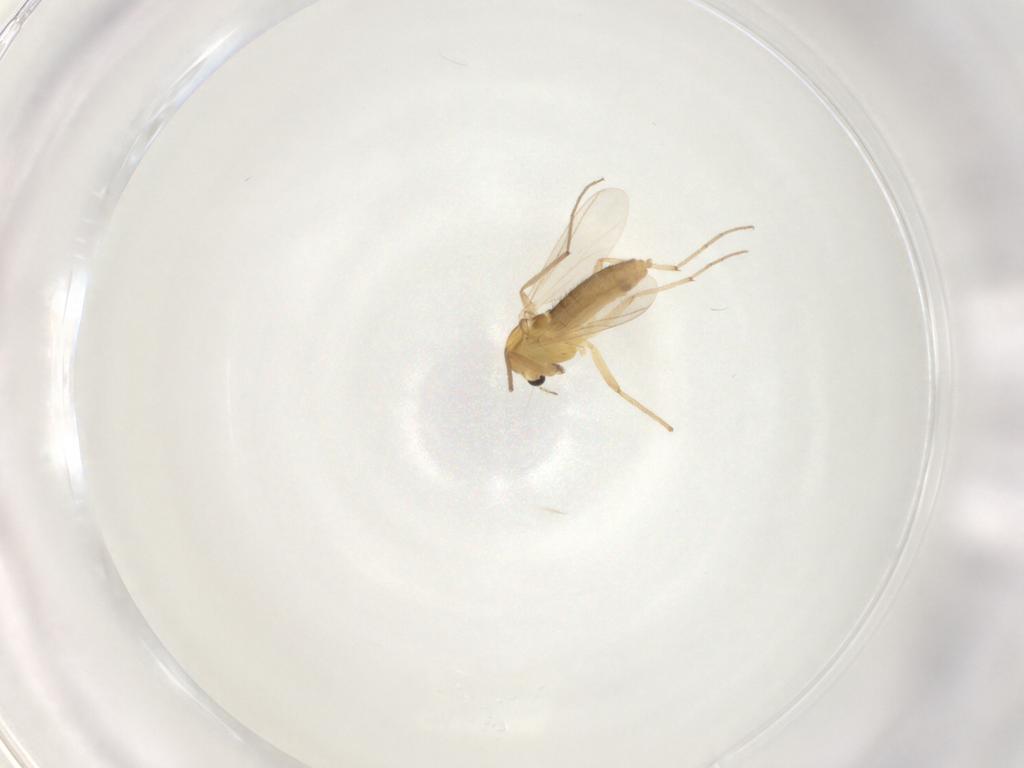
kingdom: Animalia
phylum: Arthropoda
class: Insecta
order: Diptera
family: Chironomidae
